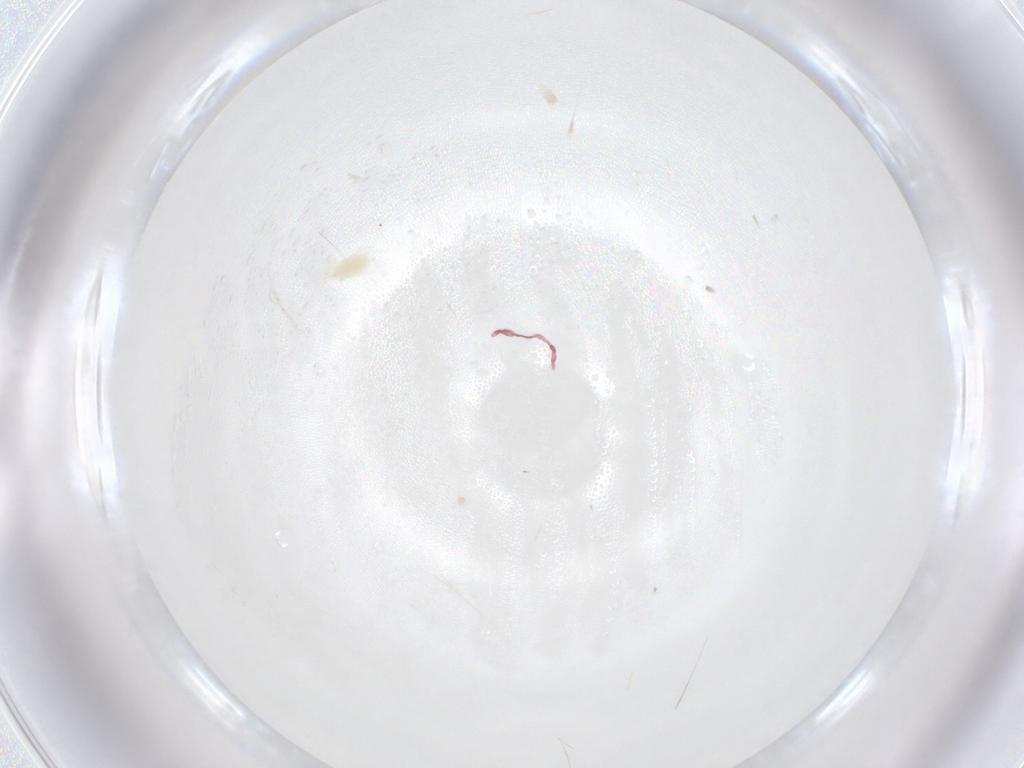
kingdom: Animalia
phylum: Arthropoda
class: Arachnida
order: Trombidiformes
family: Tetranychidae
